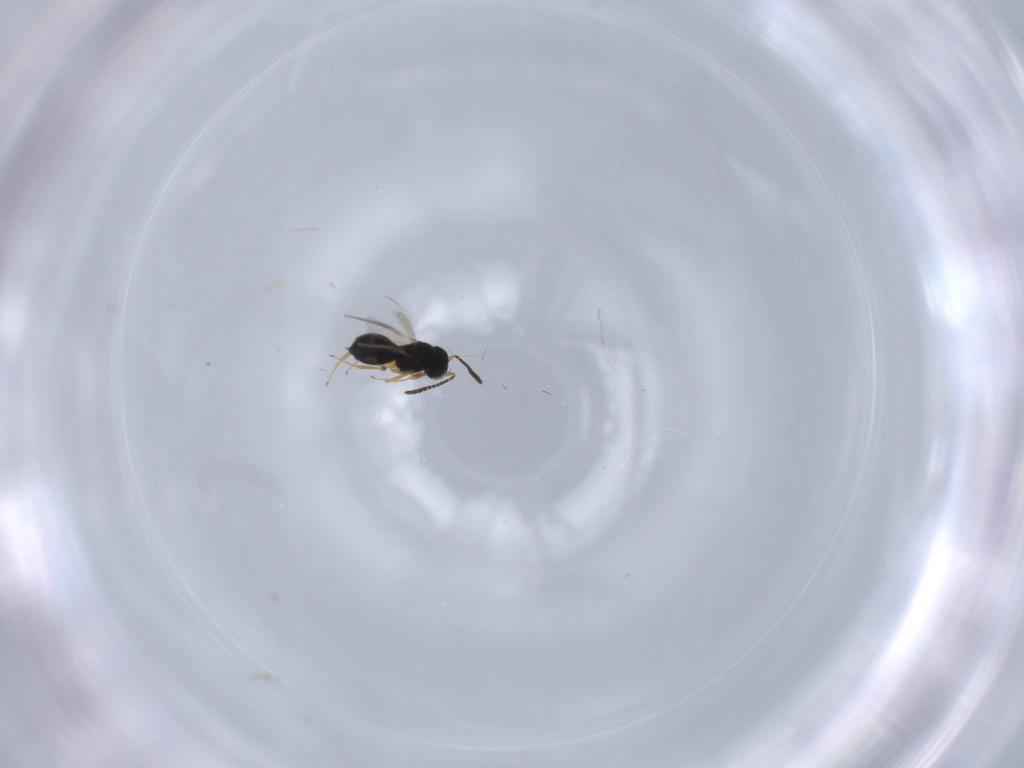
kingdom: Animalia
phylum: Arthropoda
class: Insecta
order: Hymenoptera
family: Scelionidae
